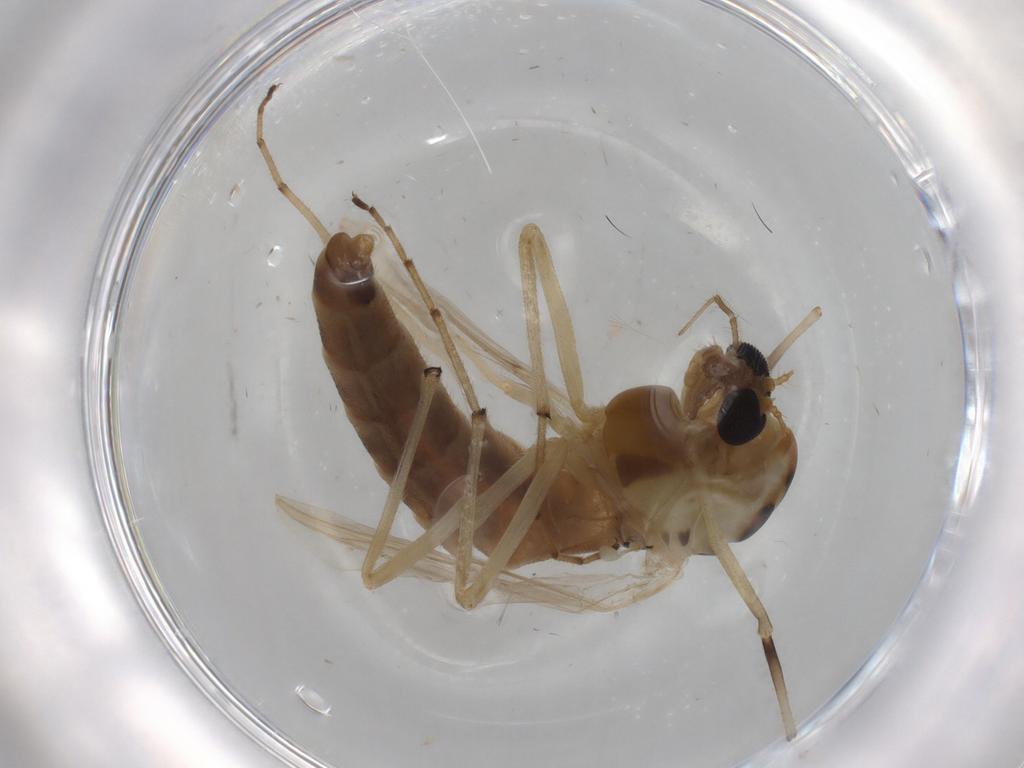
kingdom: Animalia
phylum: Arthropoda
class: Insecta
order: Diptera
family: Chironomidae
